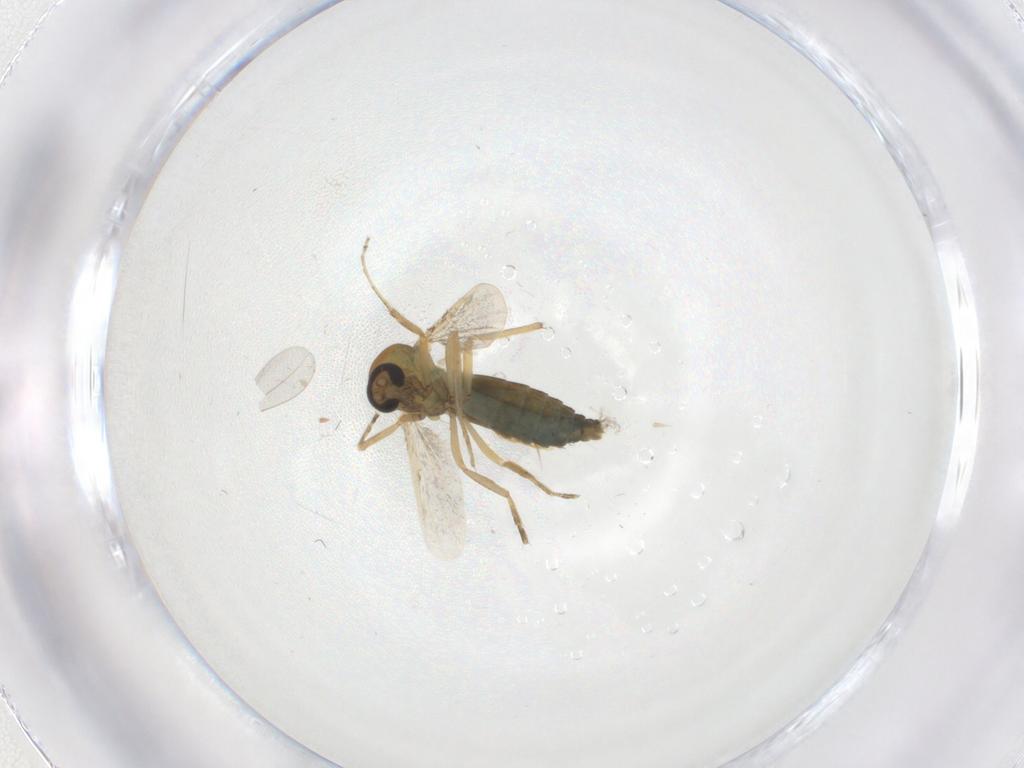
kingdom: Animalia
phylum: Arthropoda
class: Insecta
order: Diptera
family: Ceratopogonidae
